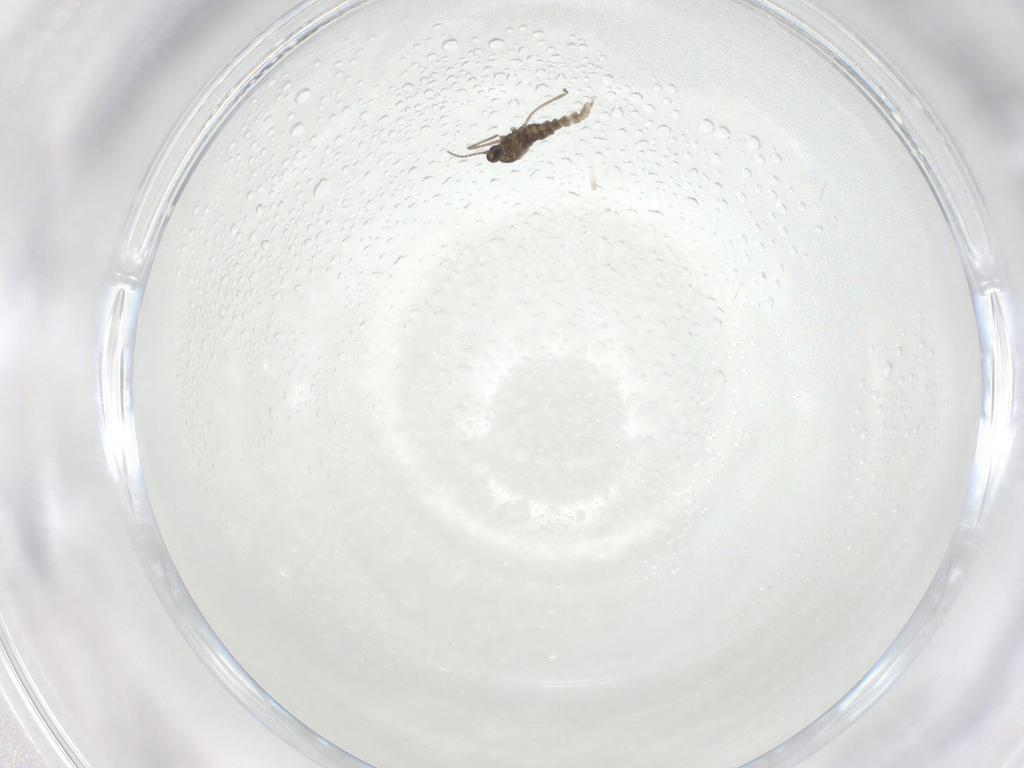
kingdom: Animalia
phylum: Arthropoda
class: Insecta
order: Diptera
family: Cecidomyiidae
